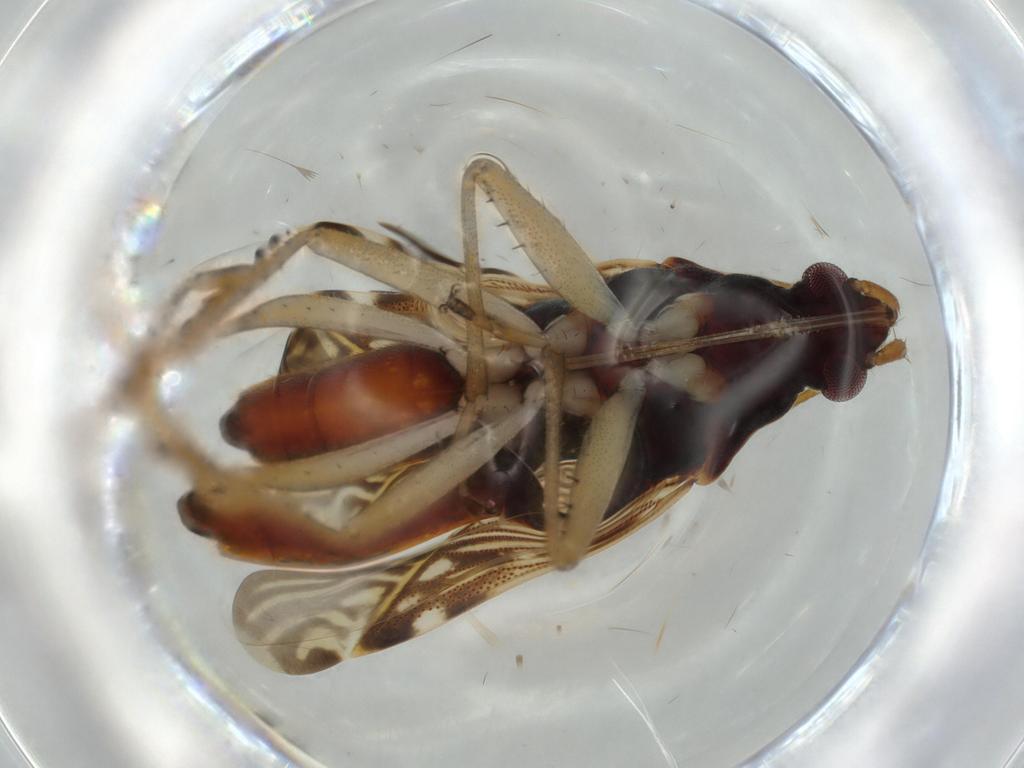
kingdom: Animalia
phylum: Arthropoda
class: Insecta
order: Hemiptera
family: Rhyparochromidae
